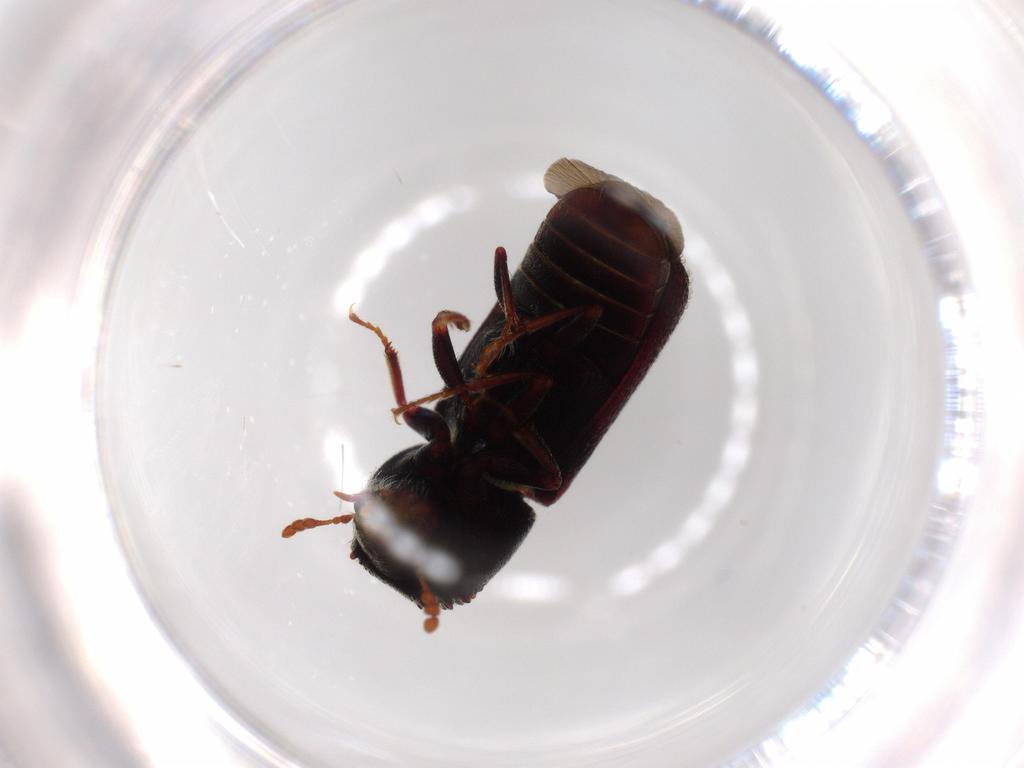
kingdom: Animalia
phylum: Arthropoda
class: Insecta
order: Coleoptera
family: Bostrichidae
